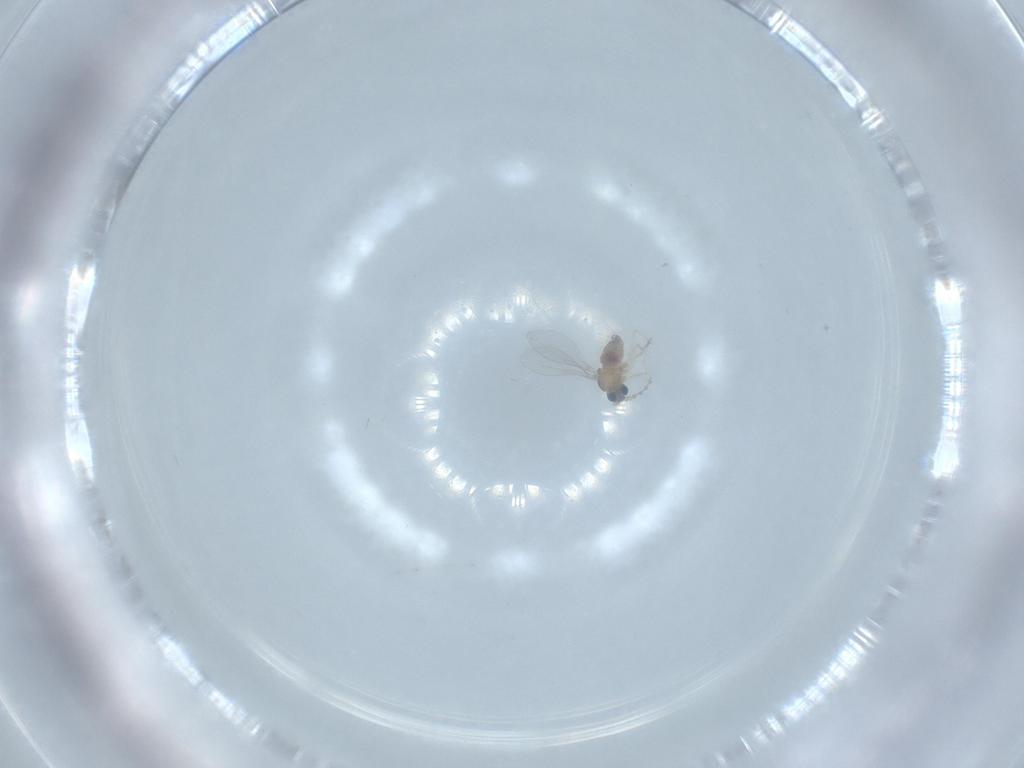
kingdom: Animalia
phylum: Arthropoda
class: Insecta
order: Diptera
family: Cecidomyiidae
